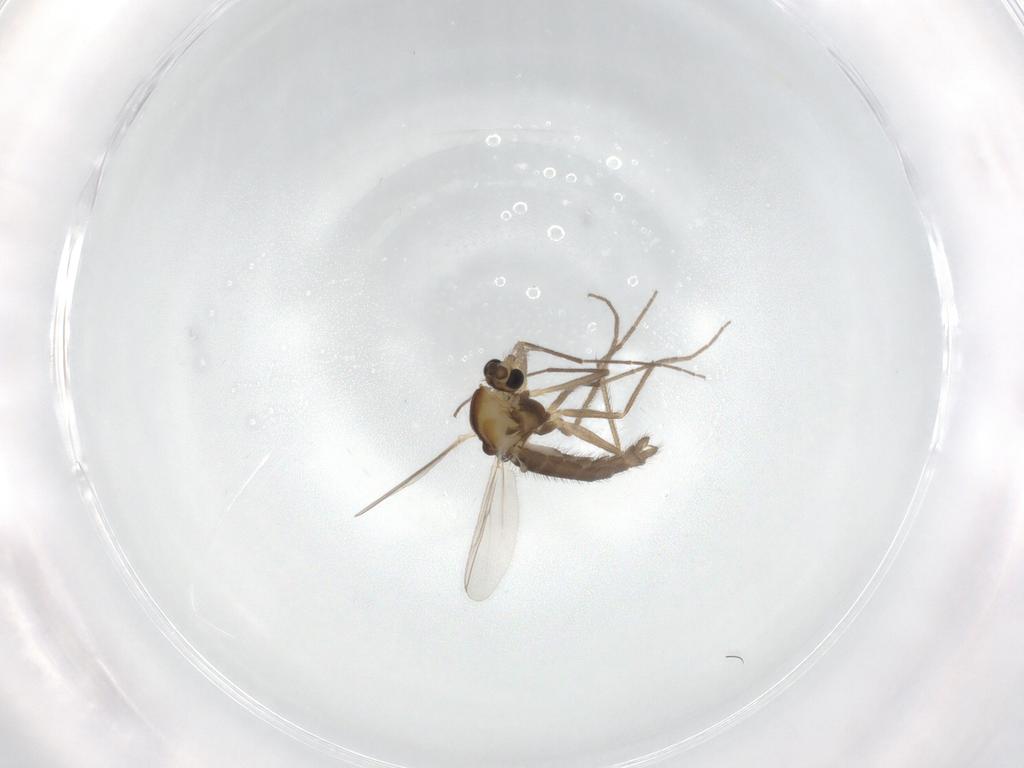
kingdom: Animalia
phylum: Arthropoda
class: Insecta
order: Diptera
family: Chironomidae
